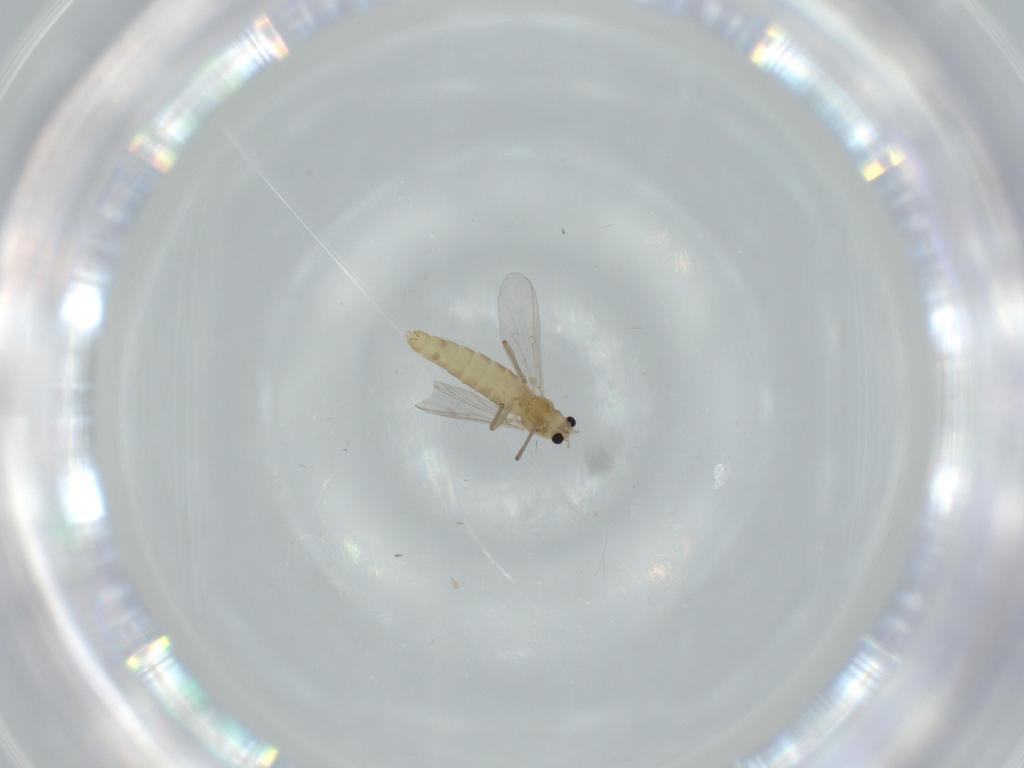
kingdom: Animalia
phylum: Arthropoda
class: Insecta
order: Diptera
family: Chironomidae
